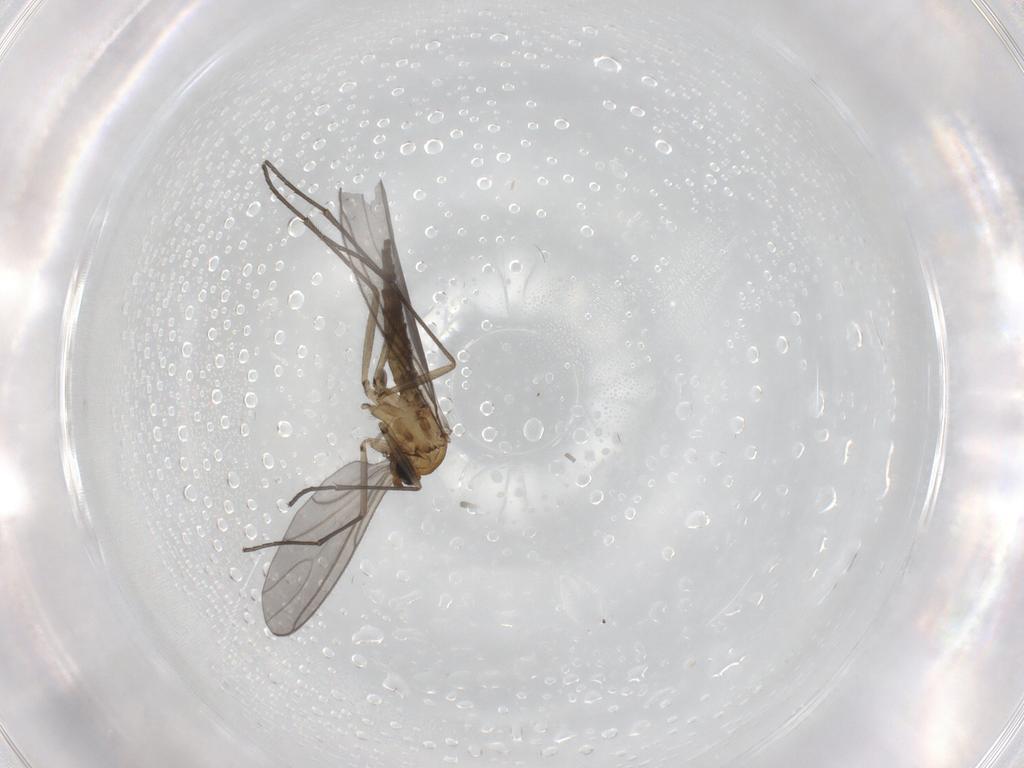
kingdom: Animalia
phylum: Arthropoda
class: Insecta
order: Diptera
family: Sciaridae
